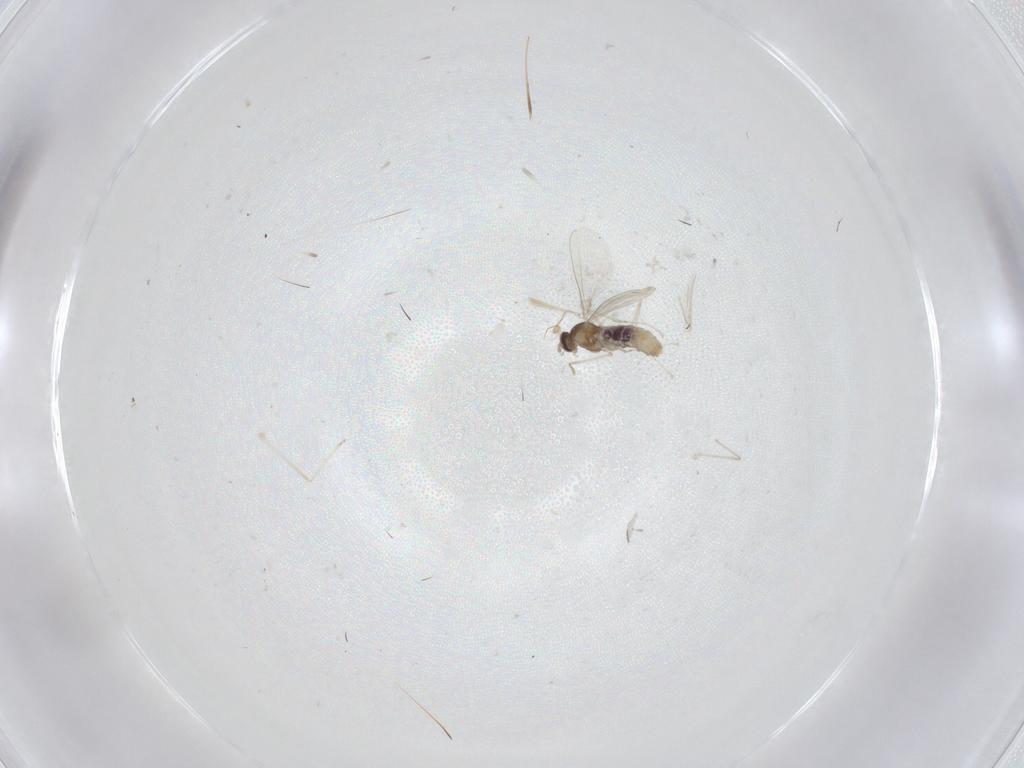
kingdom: Animalia
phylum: Arthropoda
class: Insecta
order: Diptera
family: Cecidomyiidae
